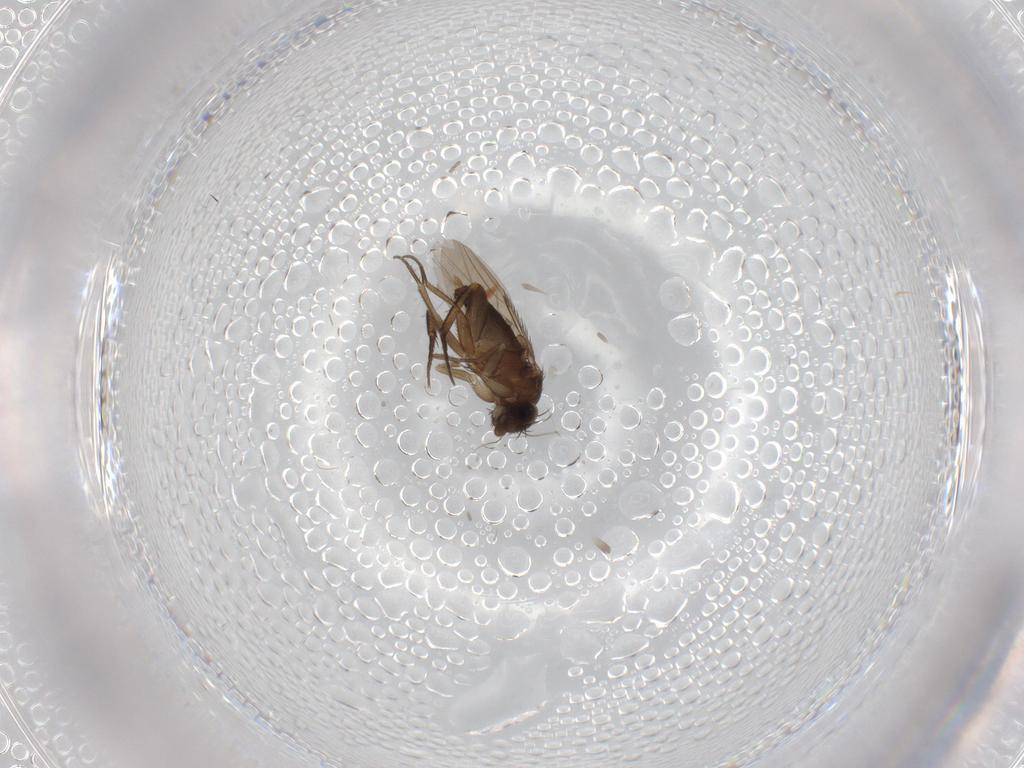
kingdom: Animalia
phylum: Arthropoda
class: Insecta
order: Diptera
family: Phoridae
